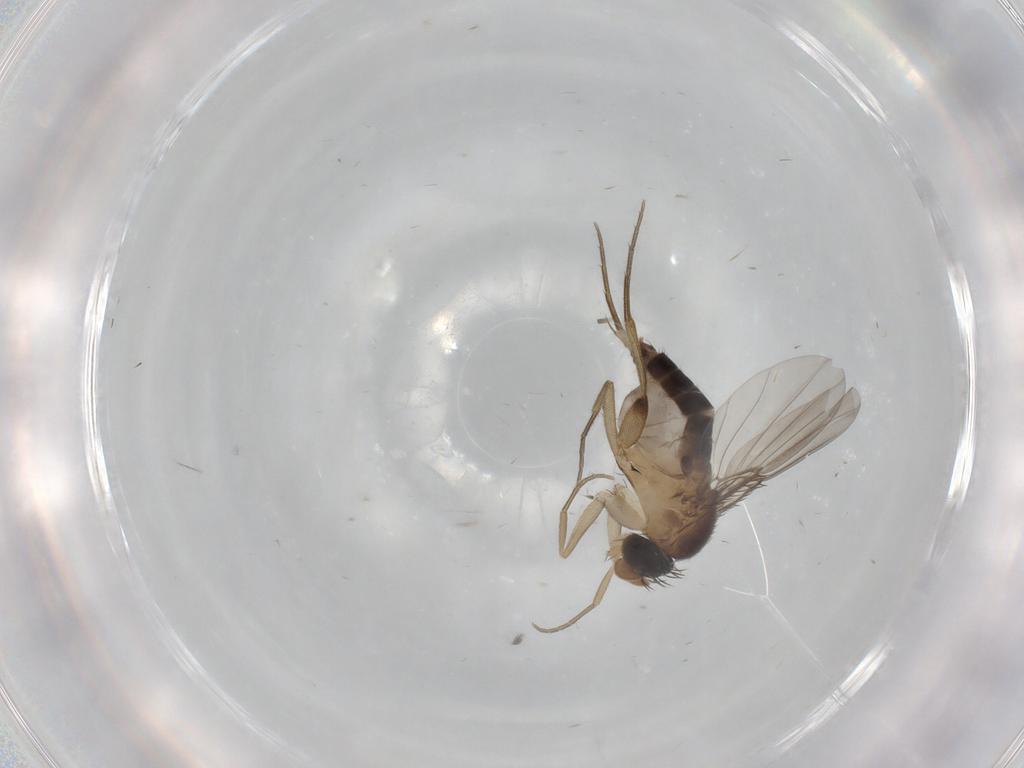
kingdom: Animalia
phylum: Arthropoda
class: Insecta
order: Diptera
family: Phoridae
